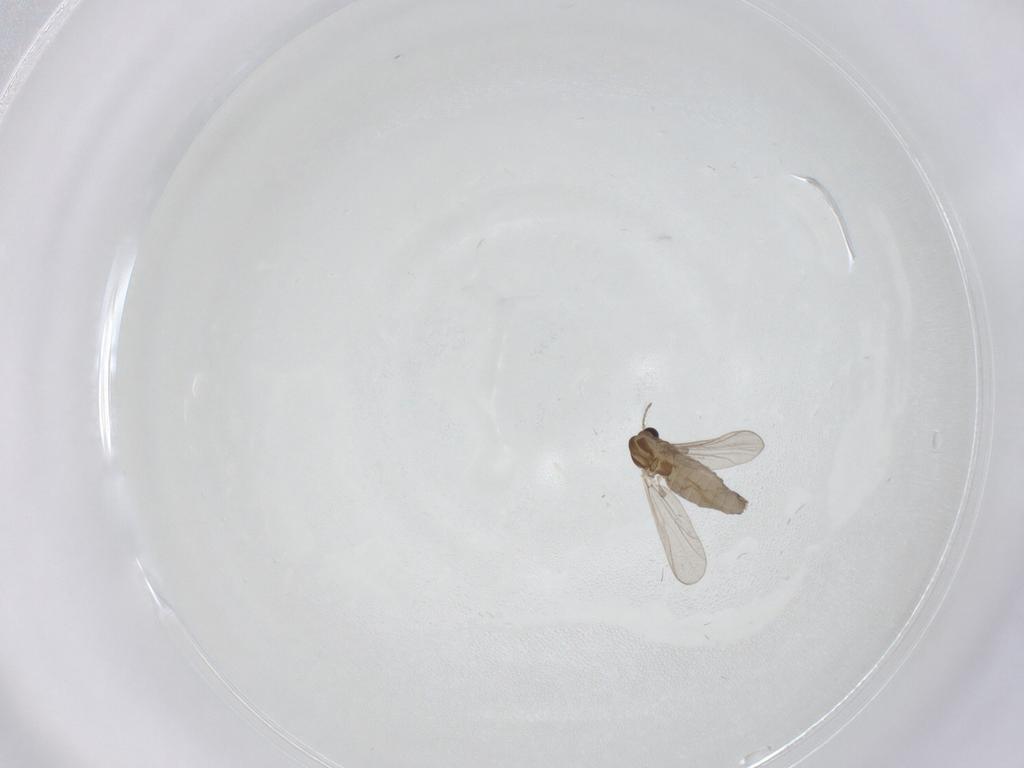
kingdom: Animalia
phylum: Arthropoda
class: Insecta
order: Diptera
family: Chironomidae
